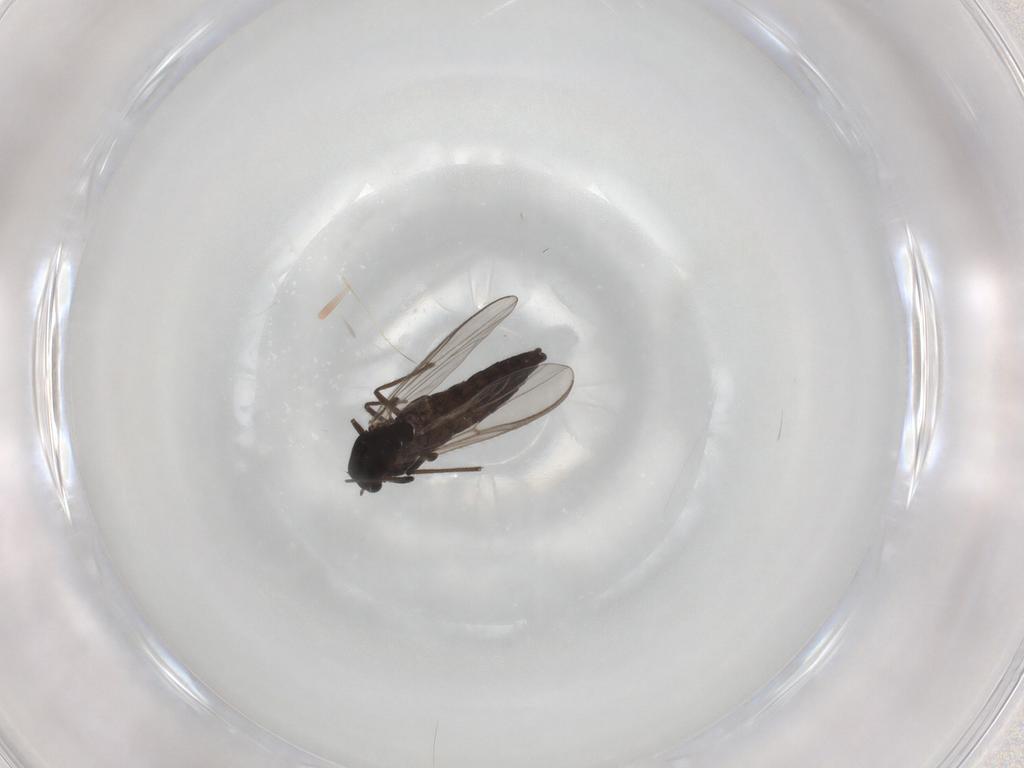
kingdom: Animalia
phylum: Arthropoda
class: Insecta
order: Diptera
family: Chironomidae
